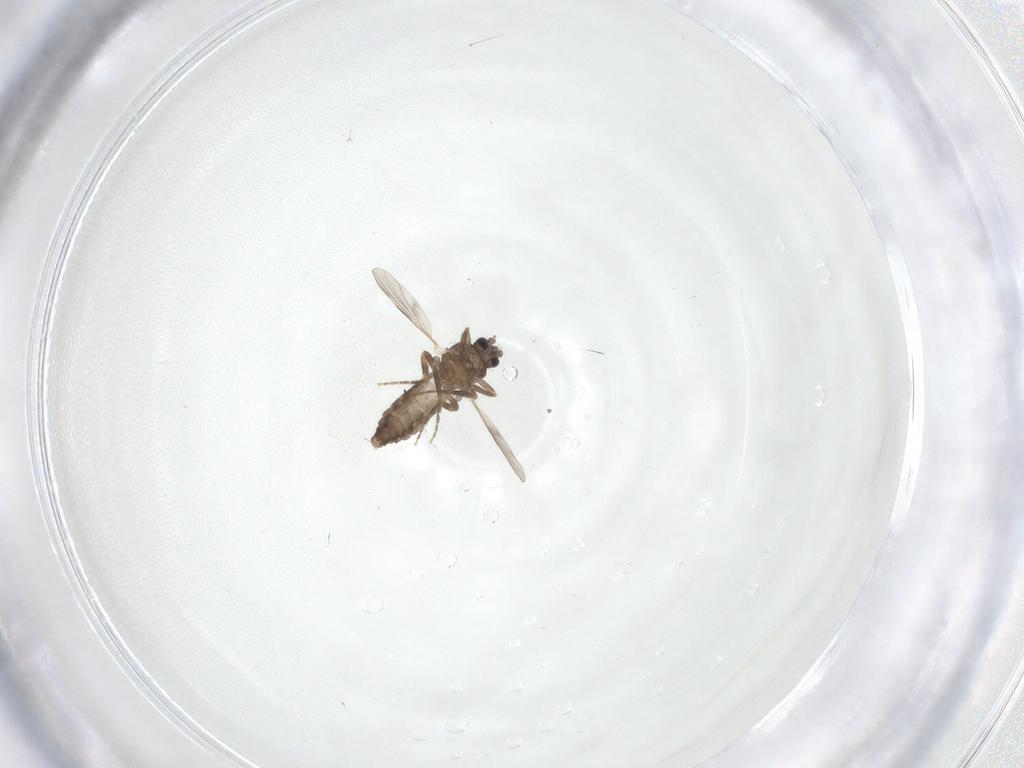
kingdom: Animalia
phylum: Arthropoda
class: Insecta
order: Diptera
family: Ceratopogonidae
